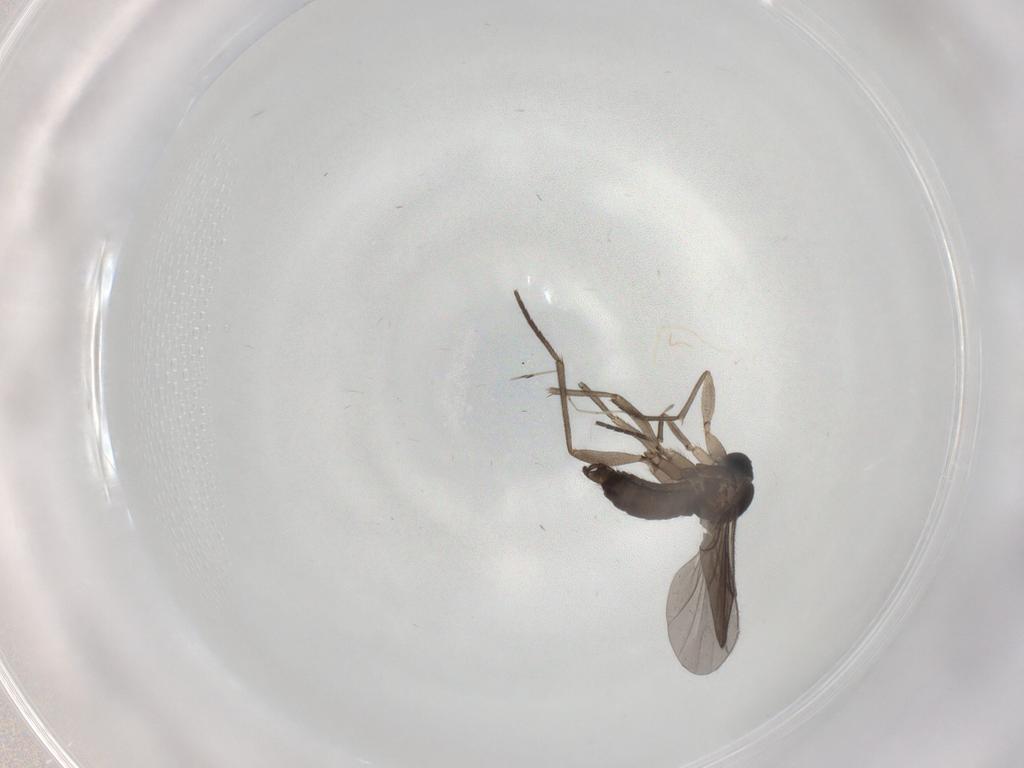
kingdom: Animalia
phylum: Arthropoda
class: Insecta
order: Diptera
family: Sciaridae
